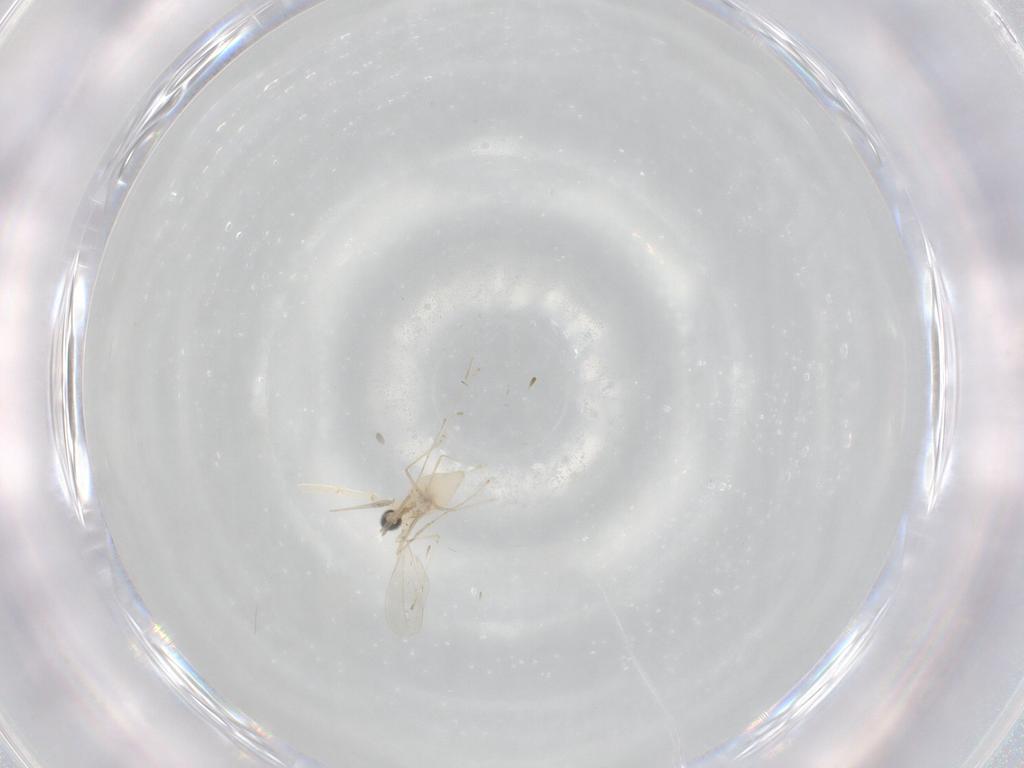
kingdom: Animalia
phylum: Arthropoda
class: Insecta
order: Diptera
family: Cecidomyiidae
